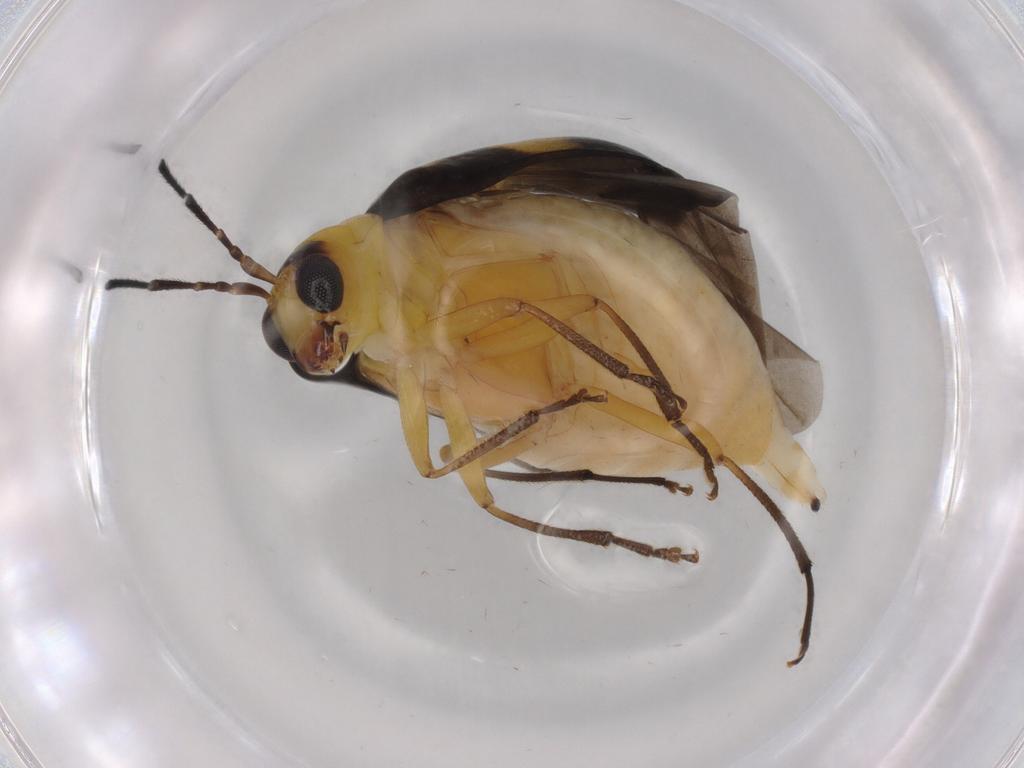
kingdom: Animalia
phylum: Arthropoda
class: Insecta
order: Coleoptera
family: Latridiidae
